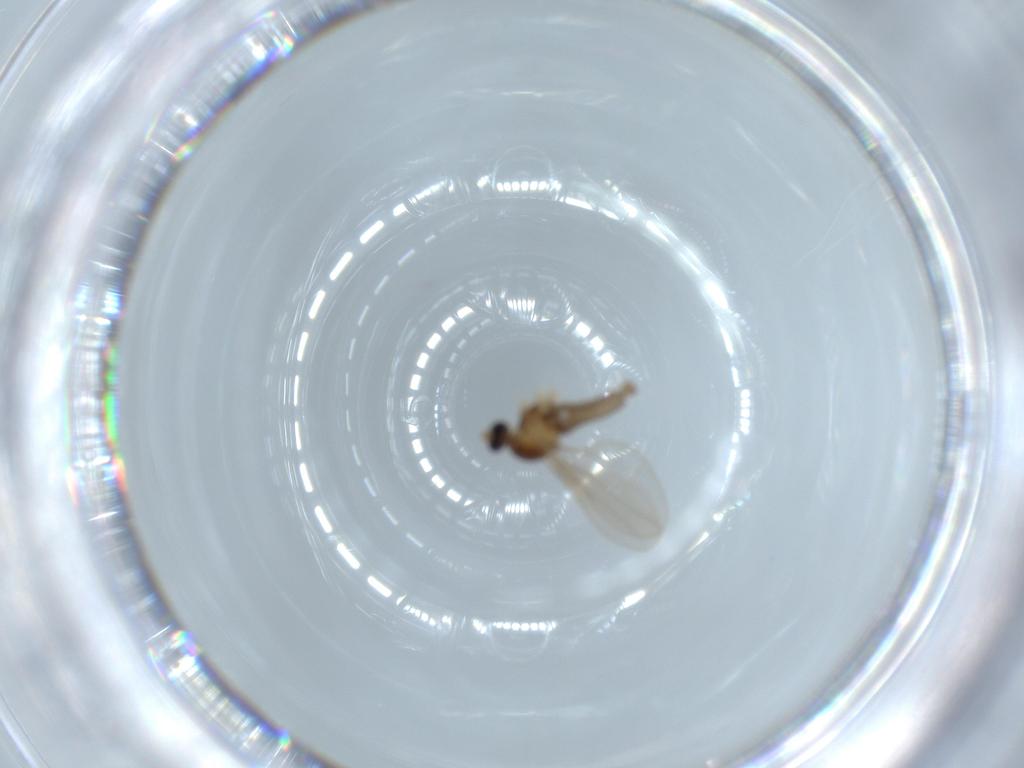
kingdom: Animalia
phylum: Arthropoda
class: Insecta
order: Diptera
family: Cecidomyiidae
